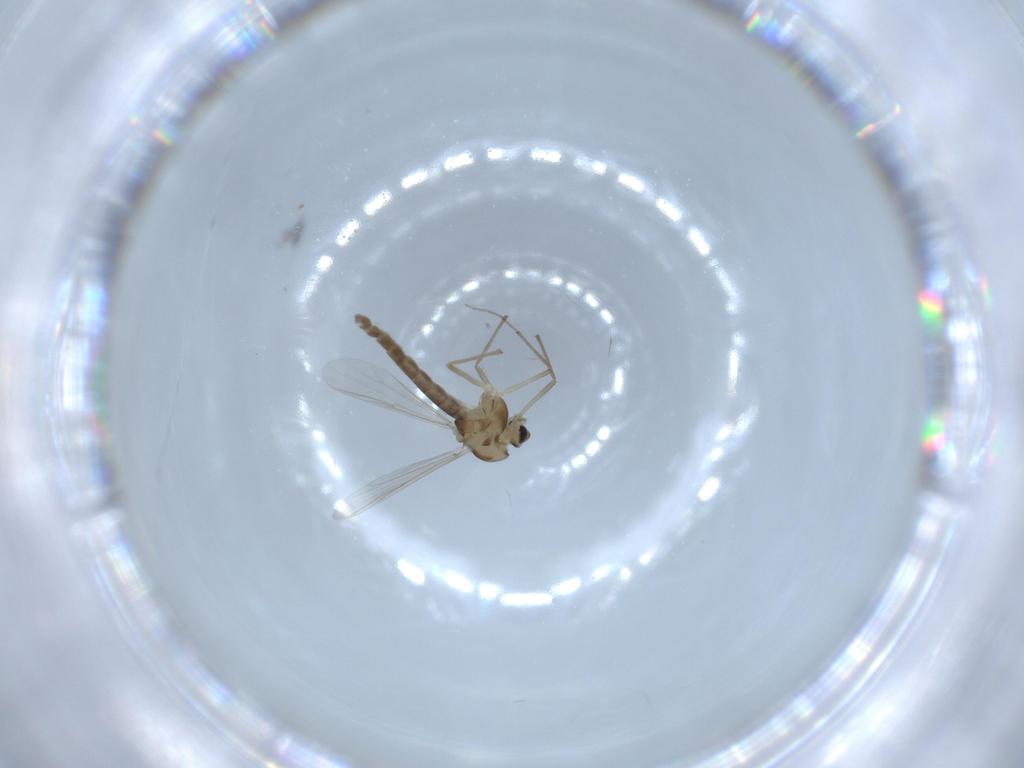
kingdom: Animalia
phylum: Arthropoda
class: Insecta
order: Diptera
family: Chironomidae
